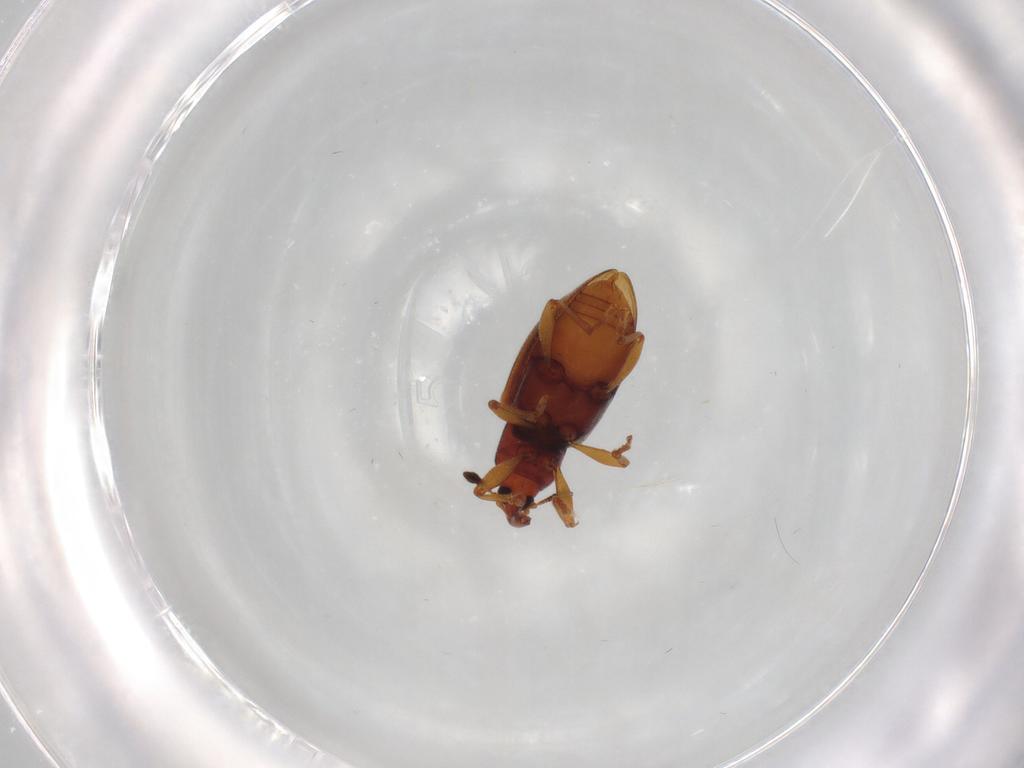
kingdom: Animalia
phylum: Arthropoda
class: Insecta
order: Coleoptera
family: Curculionidae
